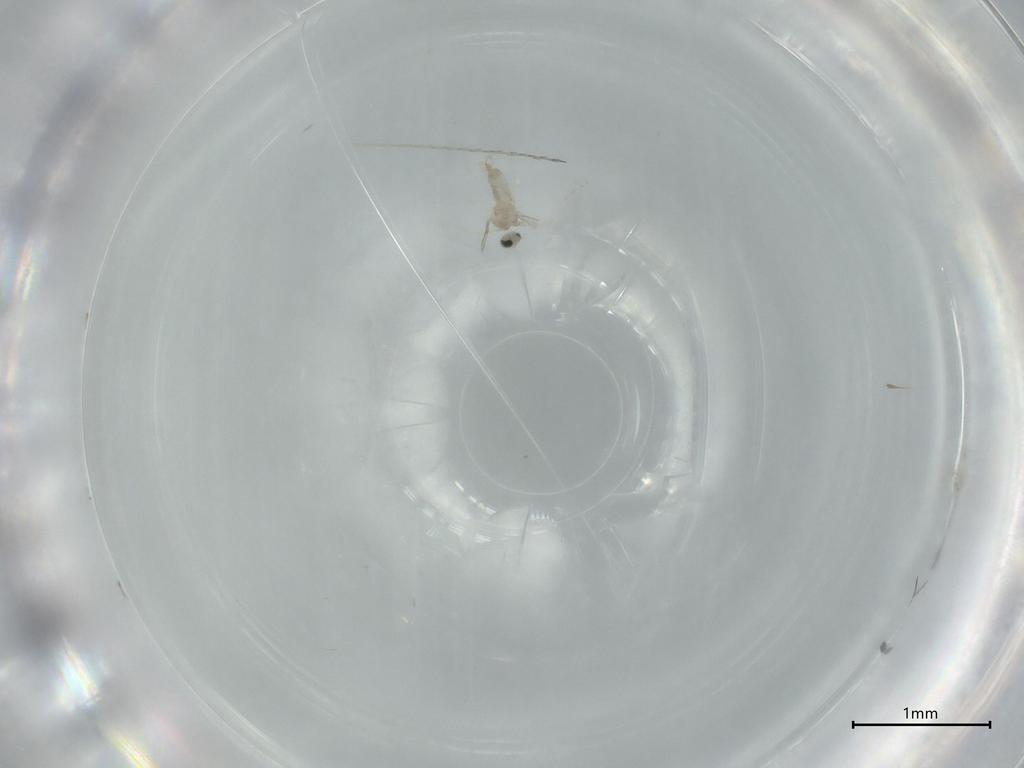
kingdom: Animalia
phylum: Arthropoda
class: Insecta
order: Diptera
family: Cecidomyiidae
